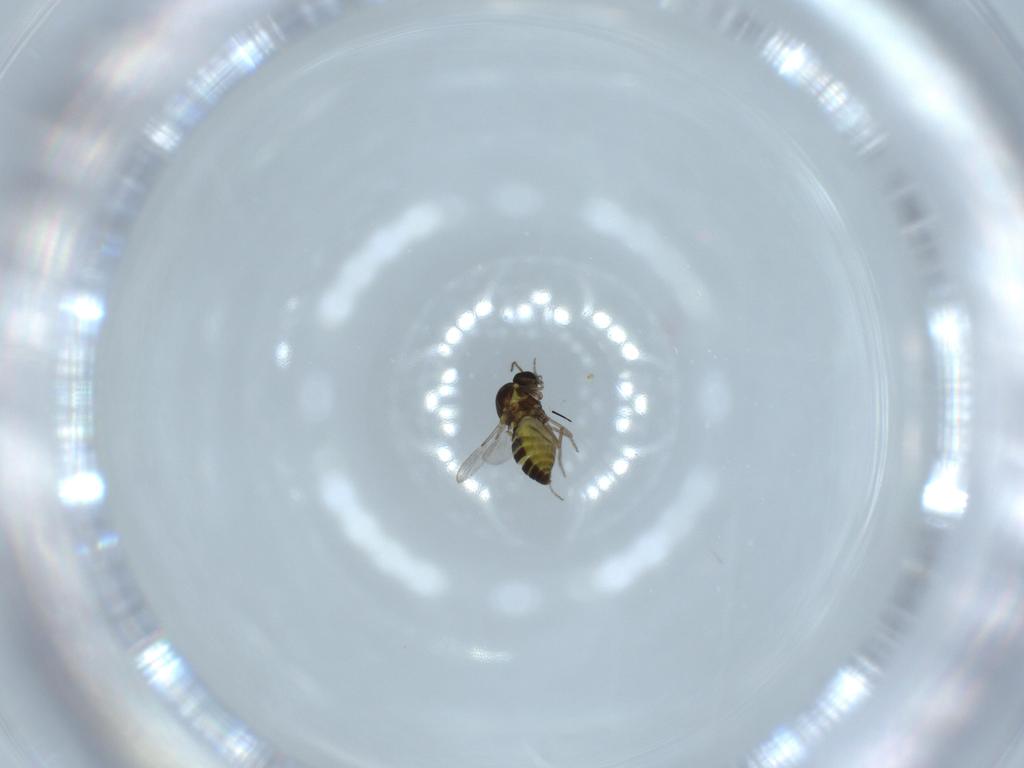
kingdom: Animalia
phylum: Arthropoda
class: Insecta
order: Diptera
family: Ceratopogonidae
